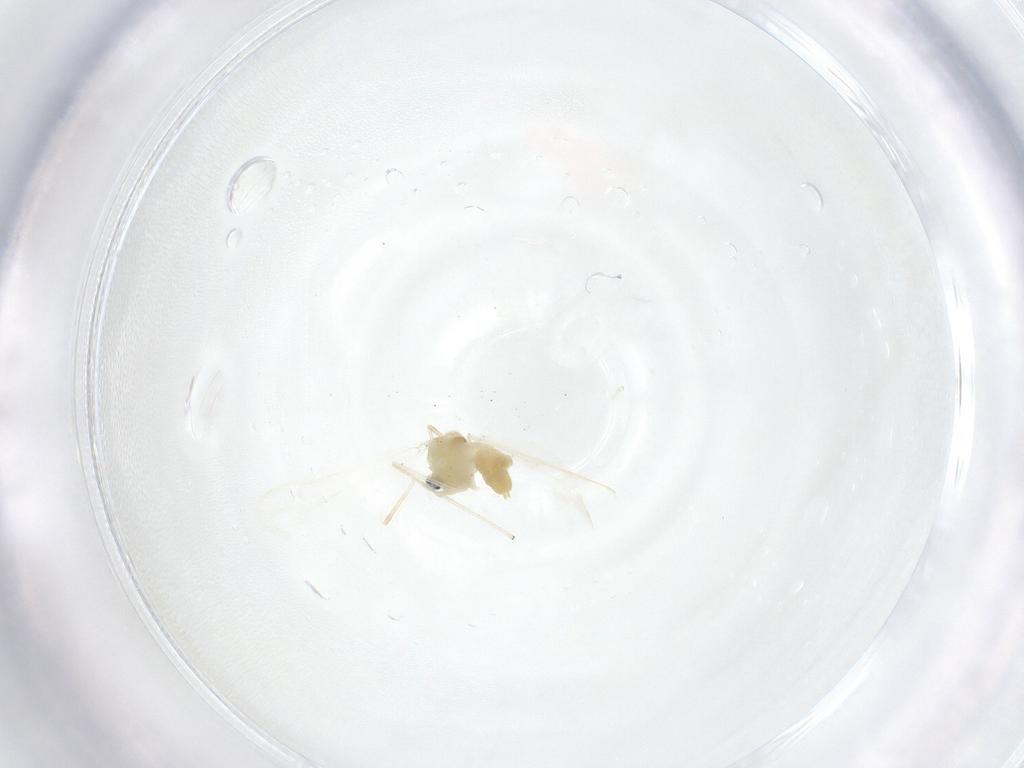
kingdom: Animalia
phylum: Arthropoda
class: Insecta
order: Diptera
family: Chironomidae
